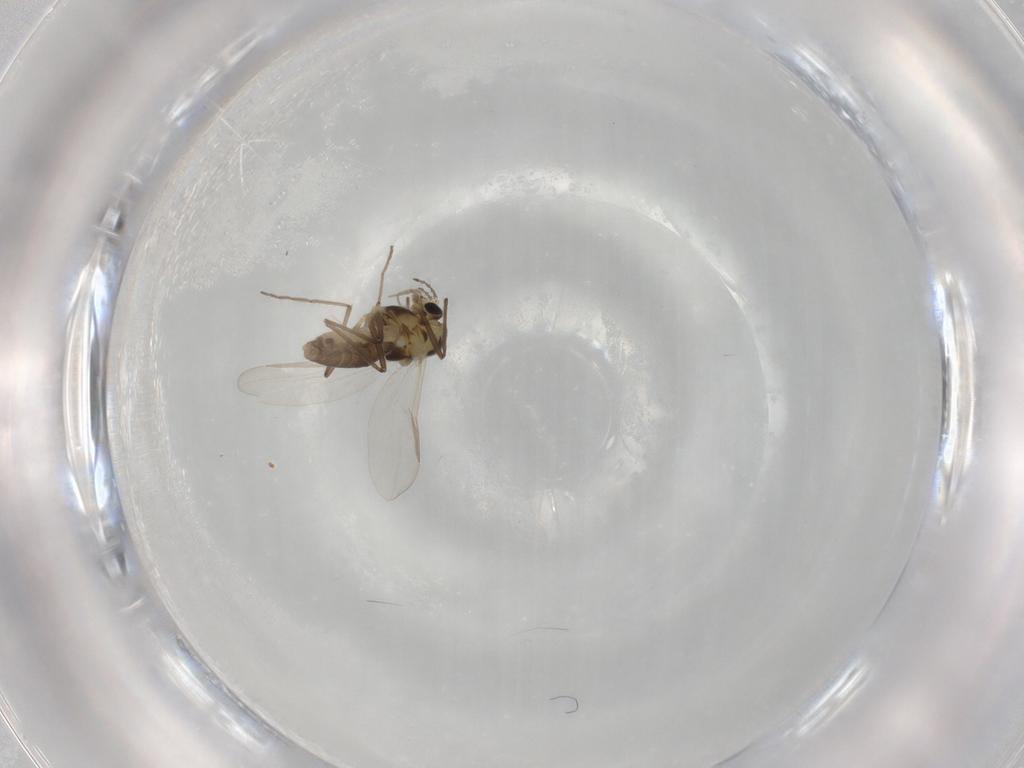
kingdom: Animalia
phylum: Arthropoda
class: Insecta
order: Diptera
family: Chironomidae
